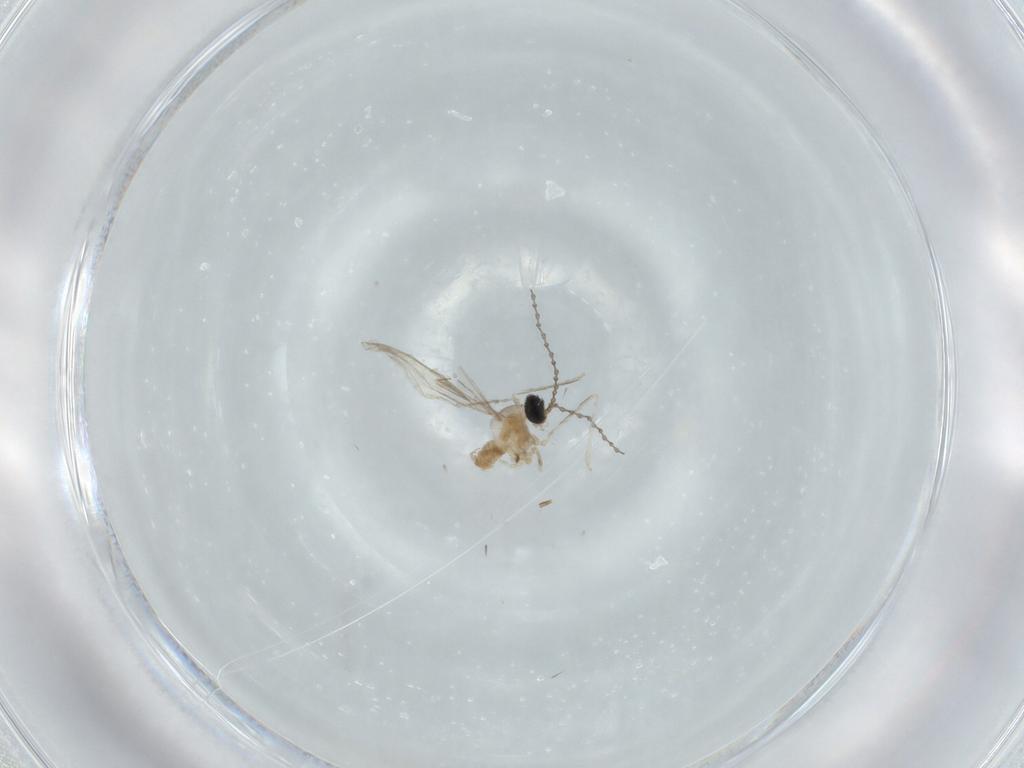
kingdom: Animalia
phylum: Arthropoda
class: Insecta
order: Diptera
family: Cecidomyiidae
